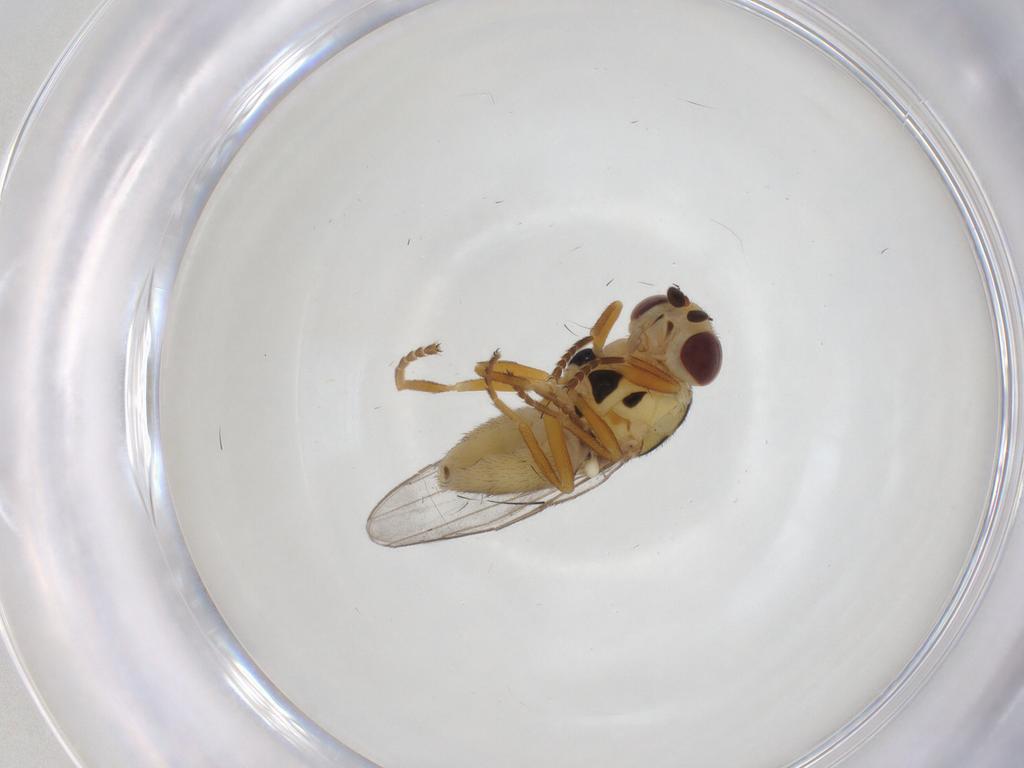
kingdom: Animalia
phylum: Arthropoda
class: Insecta
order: Diptera
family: Chloropidae
